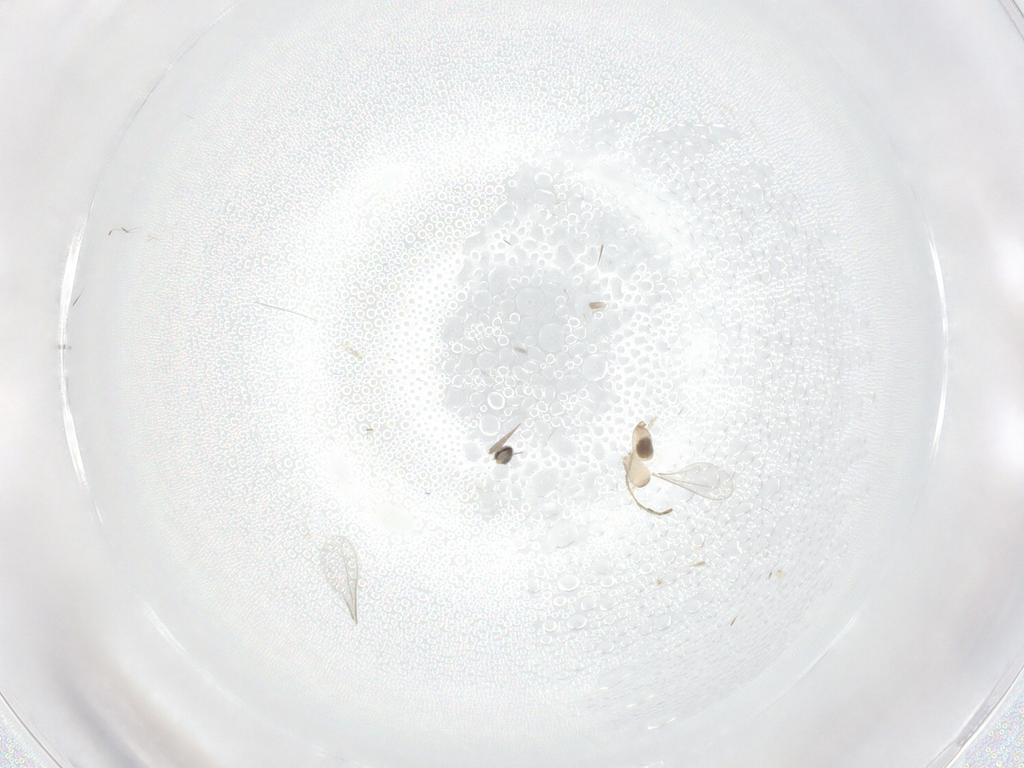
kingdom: Animalia
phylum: Arthropoda
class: Insecta
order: Diptera
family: Cecidomyiidae
